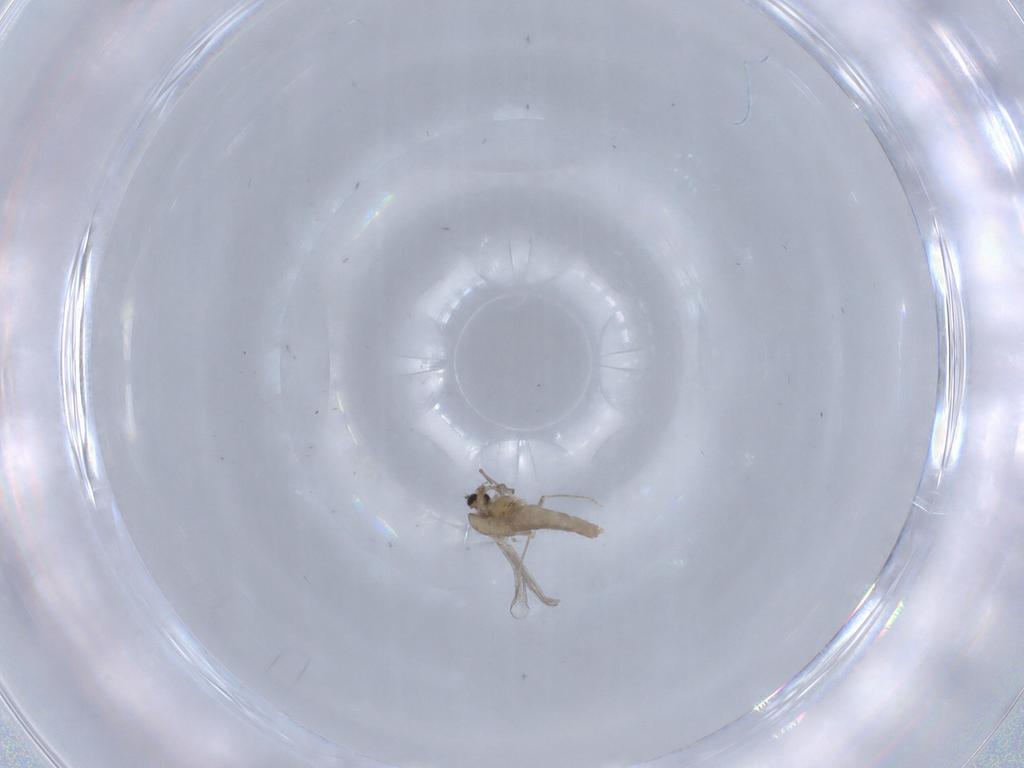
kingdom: Animalia
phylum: Arthropoda
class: Insecta
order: Diptera
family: Chironomidae
